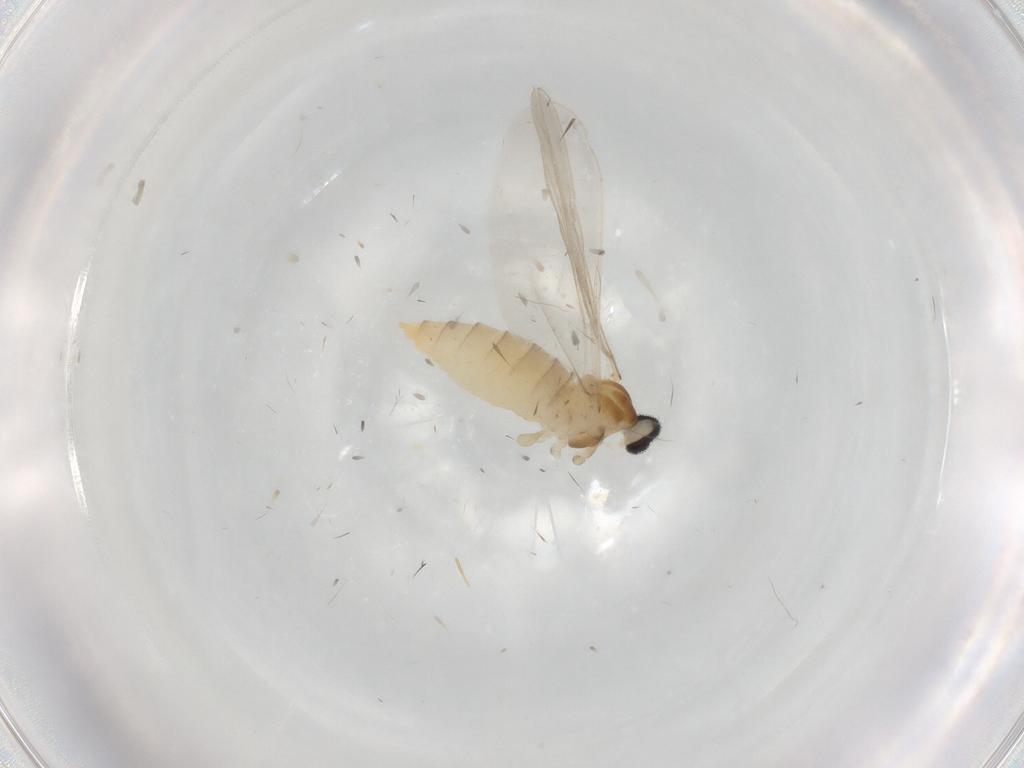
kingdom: Animalia
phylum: Arthropoda
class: Insecta
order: Diptera
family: Cecidomyiidae
